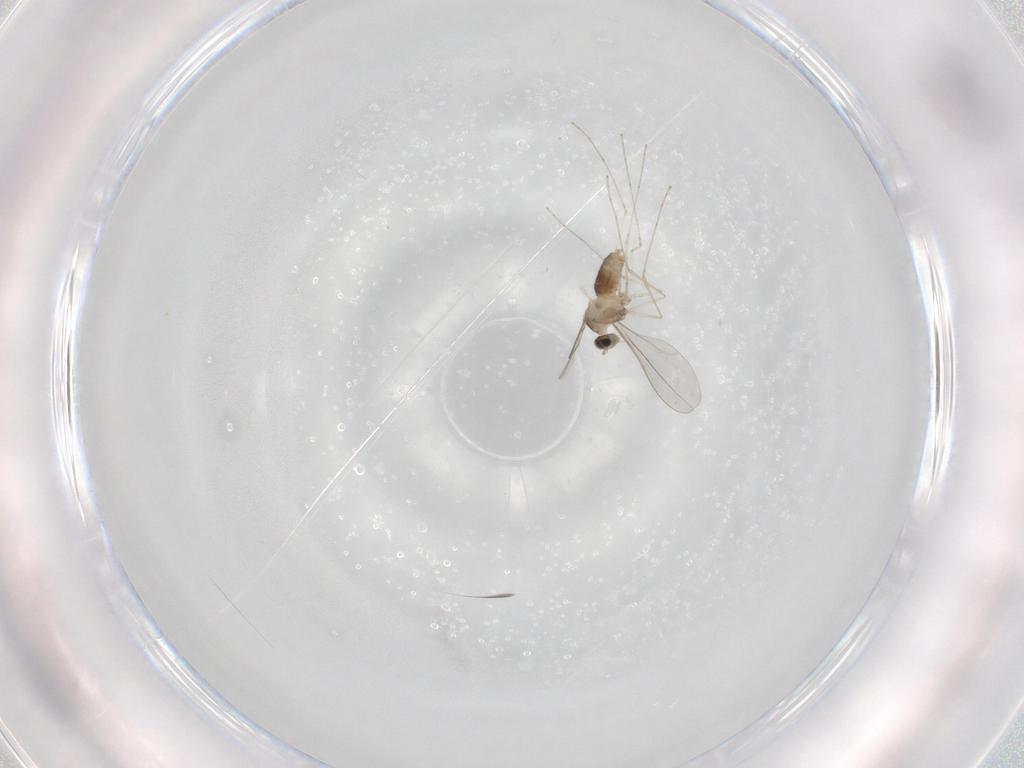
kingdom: Animalia
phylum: Arthropoda
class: Insecta
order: Diptera
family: Cecidomyiidae
